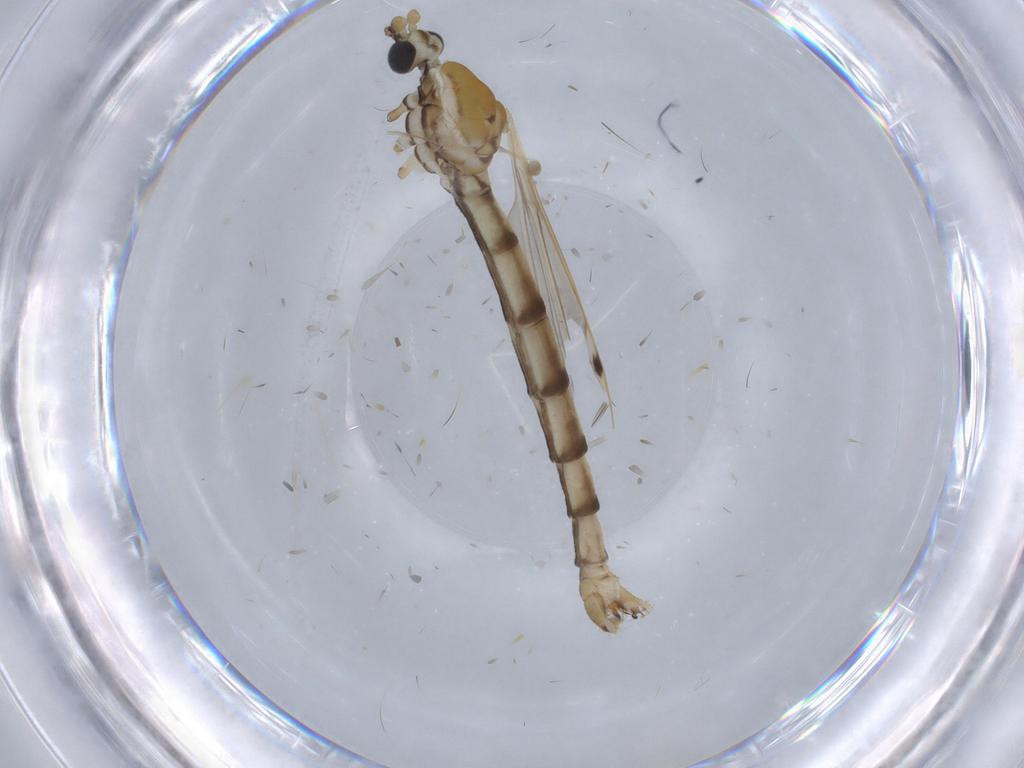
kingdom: Animalia
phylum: Arthropoda
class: Insecta
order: Diptera
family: Limoniidae
